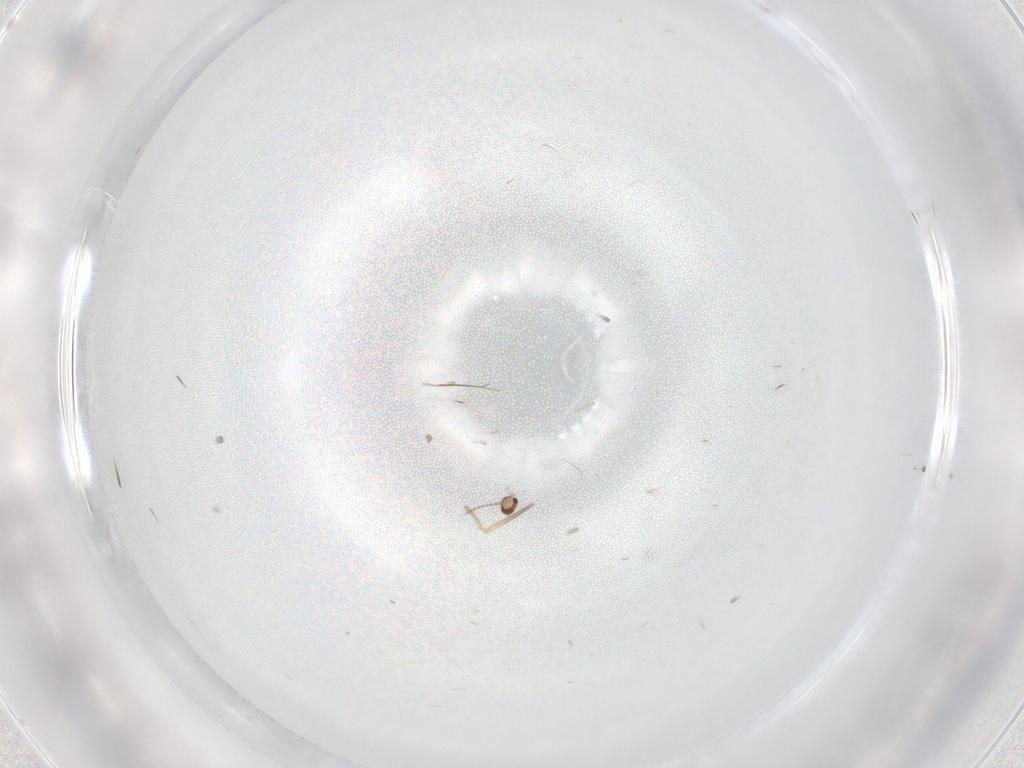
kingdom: Animalia
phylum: Arthropoda
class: Insecta
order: Diptera
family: Cecidomyiidae
